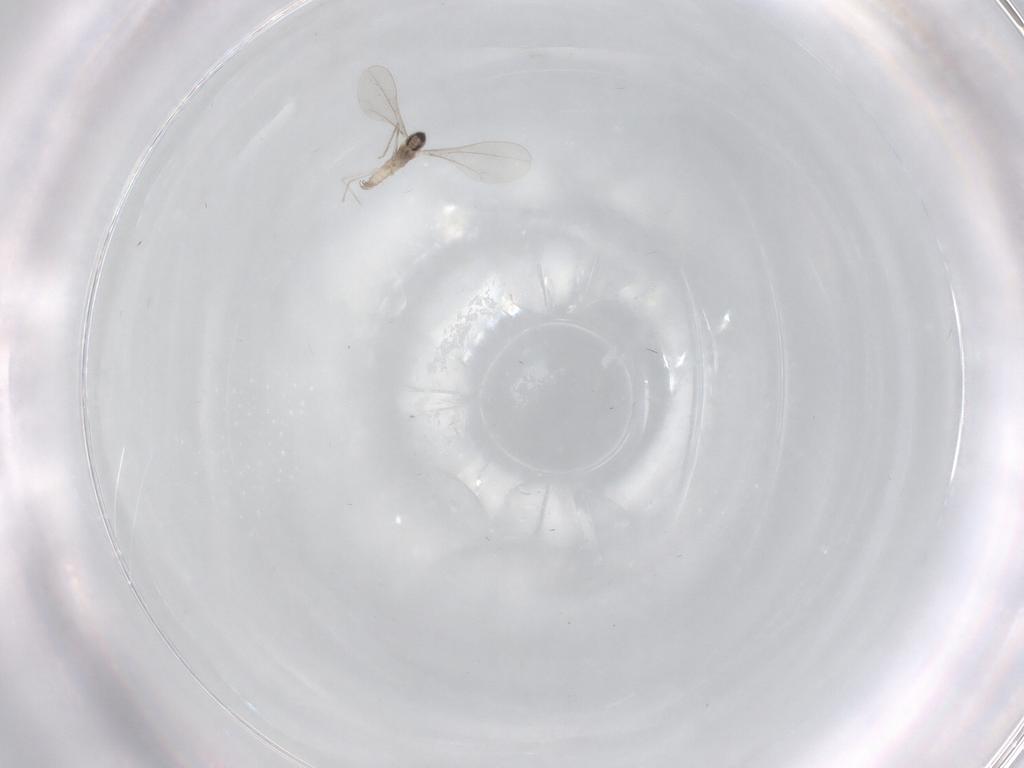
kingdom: Animalia
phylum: Arthropoda
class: Insecta
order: Diptera
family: Cecidomyiidae
